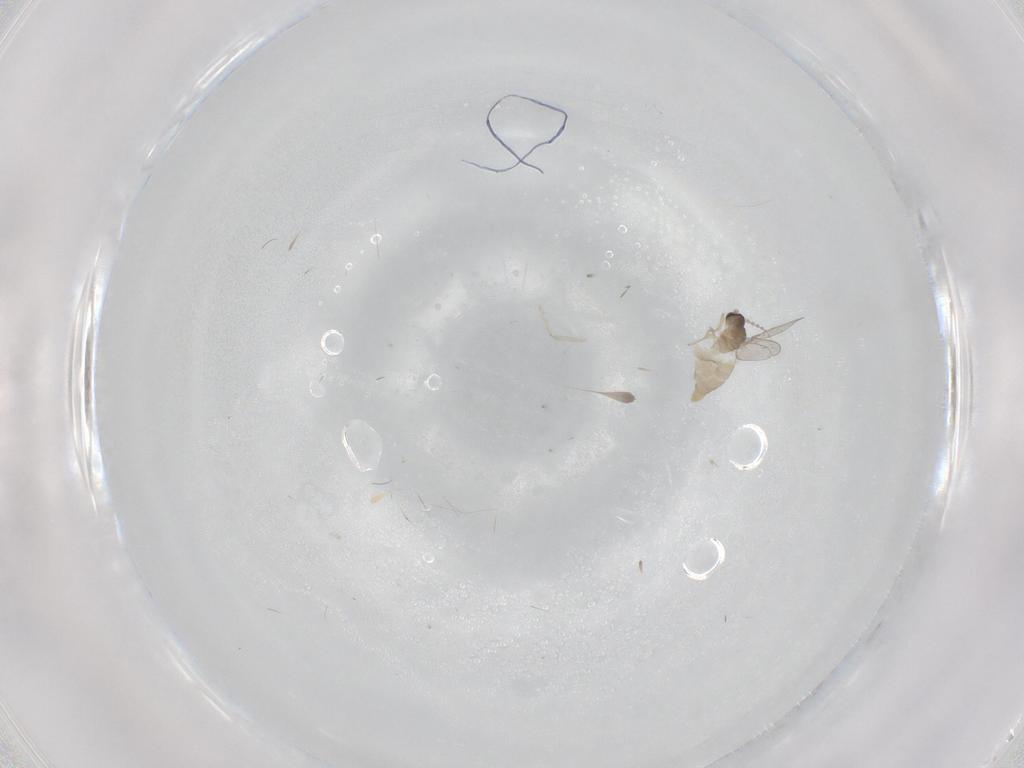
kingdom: Animalia
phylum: Arthropoda
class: Insecta
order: Diptera
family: Cecidomyiidae
